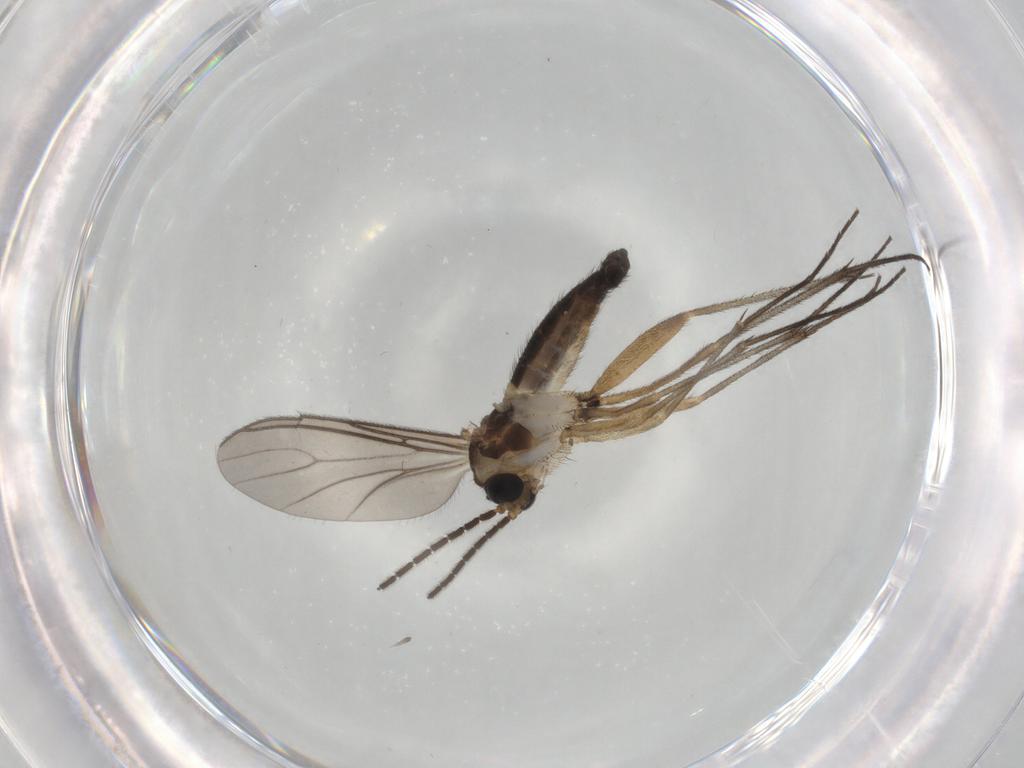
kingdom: Animalia
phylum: Arthropoda
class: Insecta
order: Diptera
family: Sciaridae
